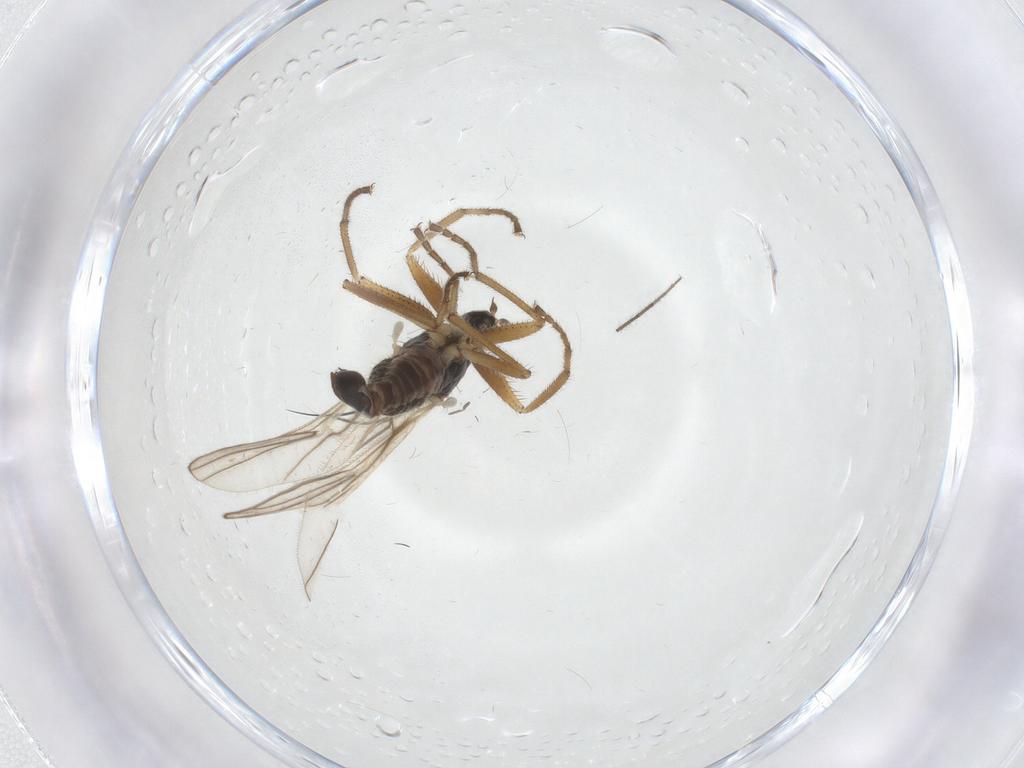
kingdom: Animalia
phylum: Arthropoda
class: Insecta
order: Diptera
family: Hybotidae
